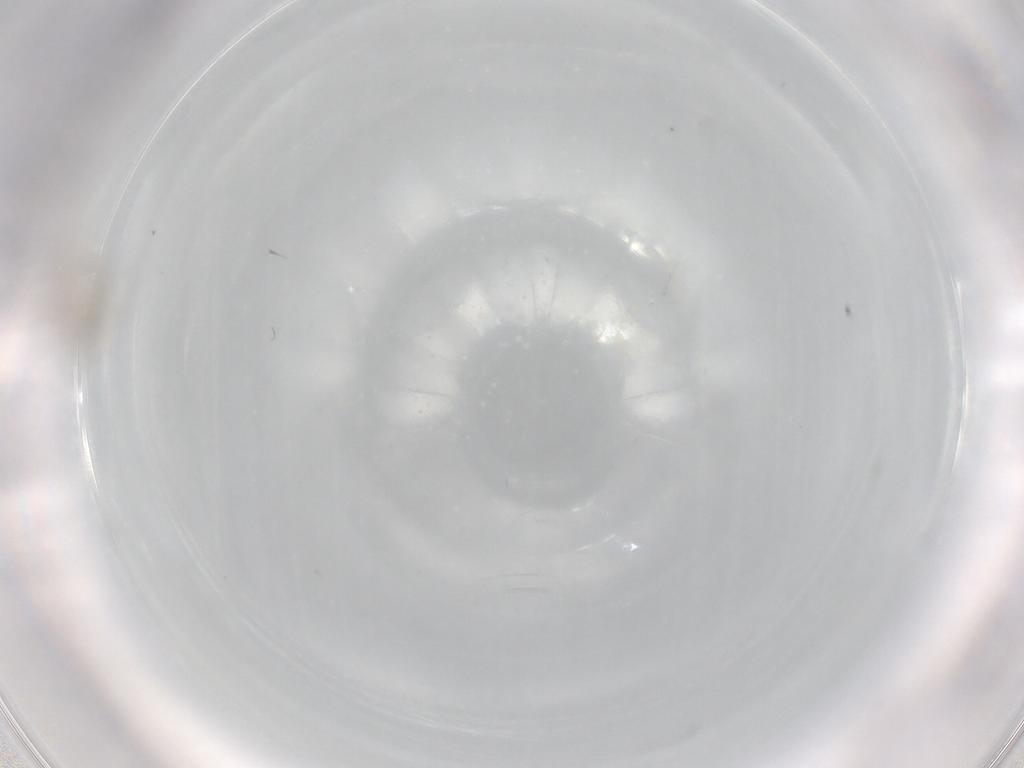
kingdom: Animalia
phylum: Arthropoda
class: Insecta
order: Diptera
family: Cecidomyiidae
